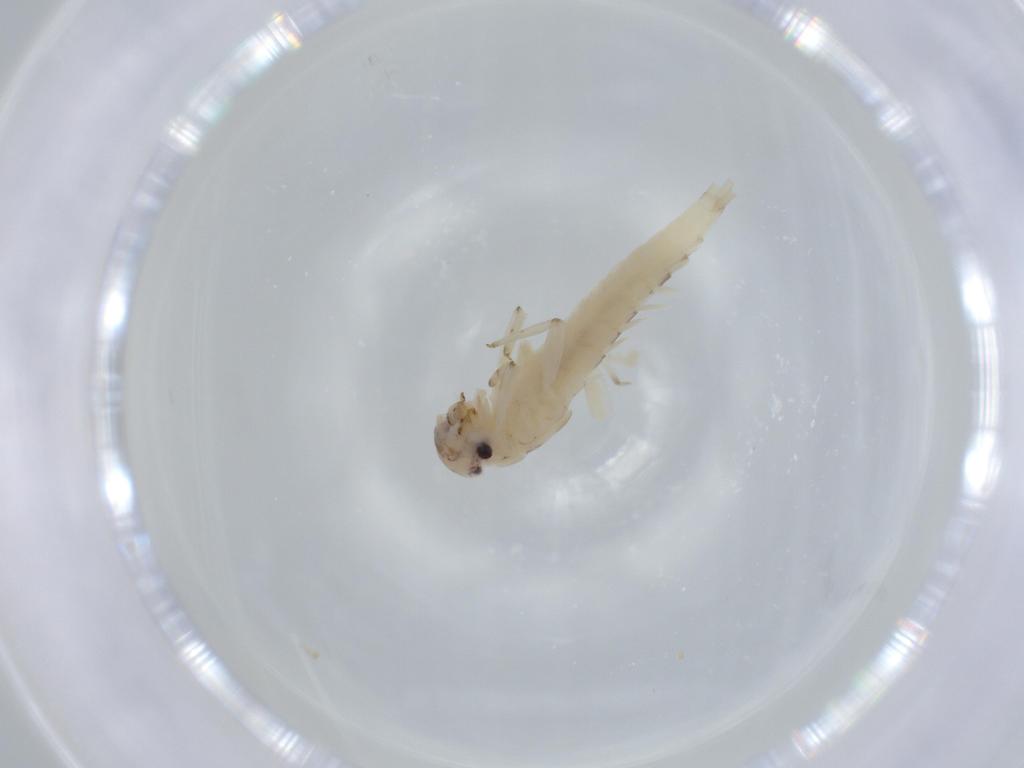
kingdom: Animalia
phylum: Arthropoda
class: Insecta
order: Ephemeroptera
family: Baetidae
